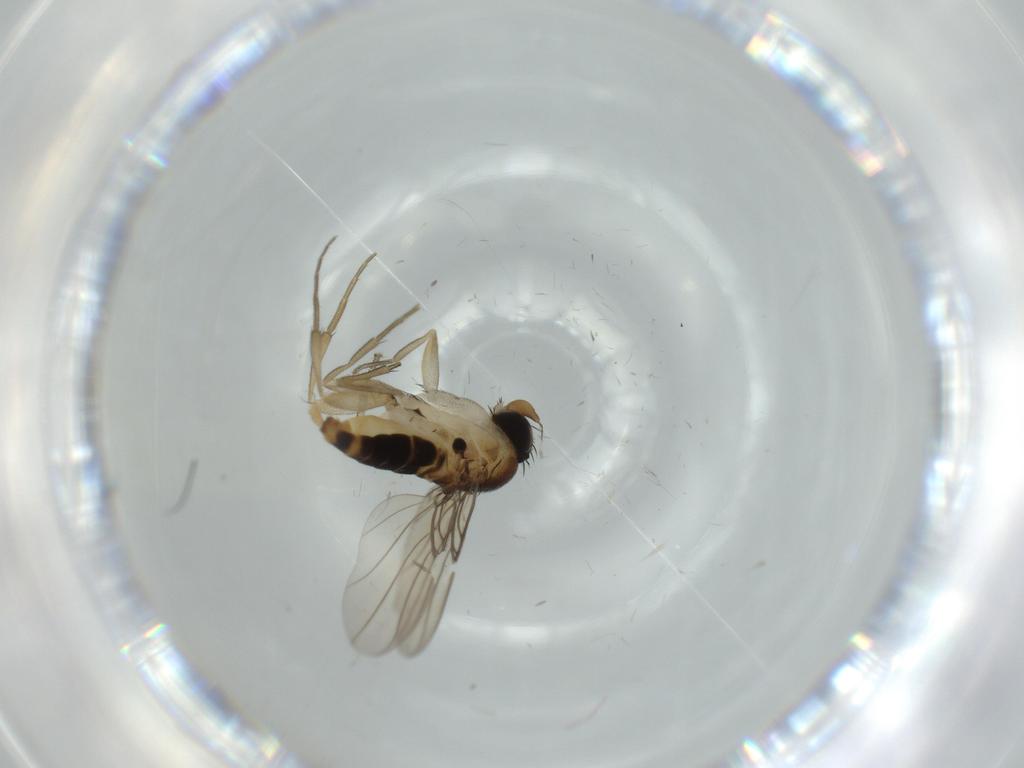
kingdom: Animalia
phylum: Arthropoda
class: Insecta
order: Diptera
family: Phoridae
